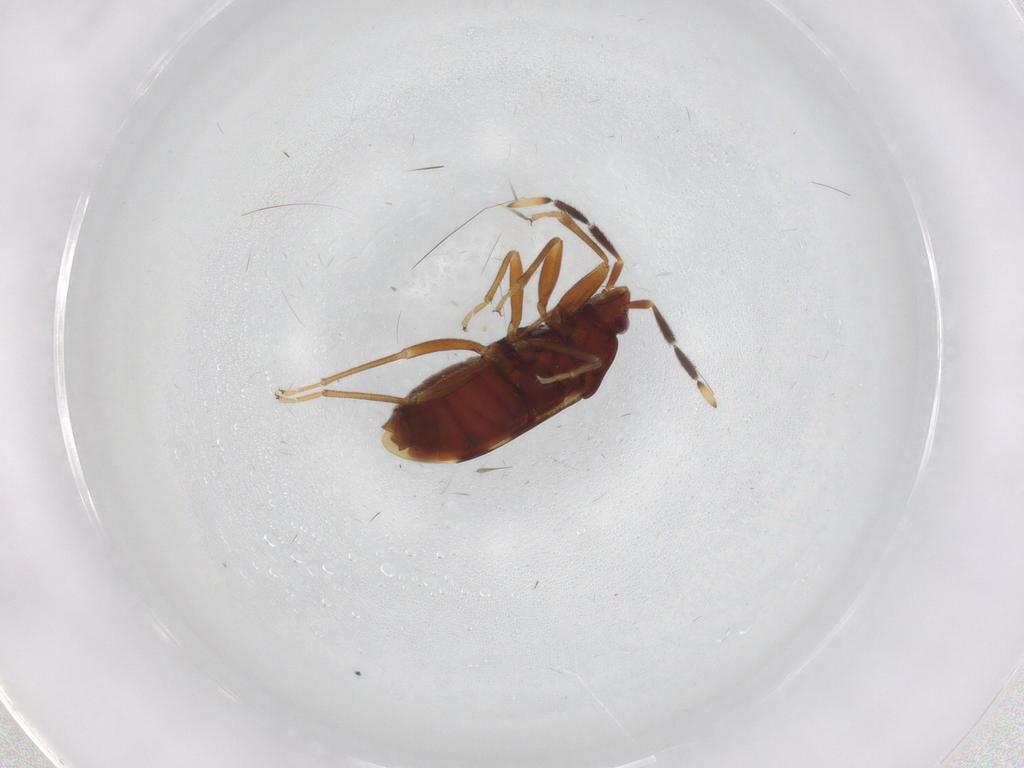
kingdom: Animalia
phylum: Arthropoda
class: Insecta
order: Hemiptera
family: Rhyparochromidae
